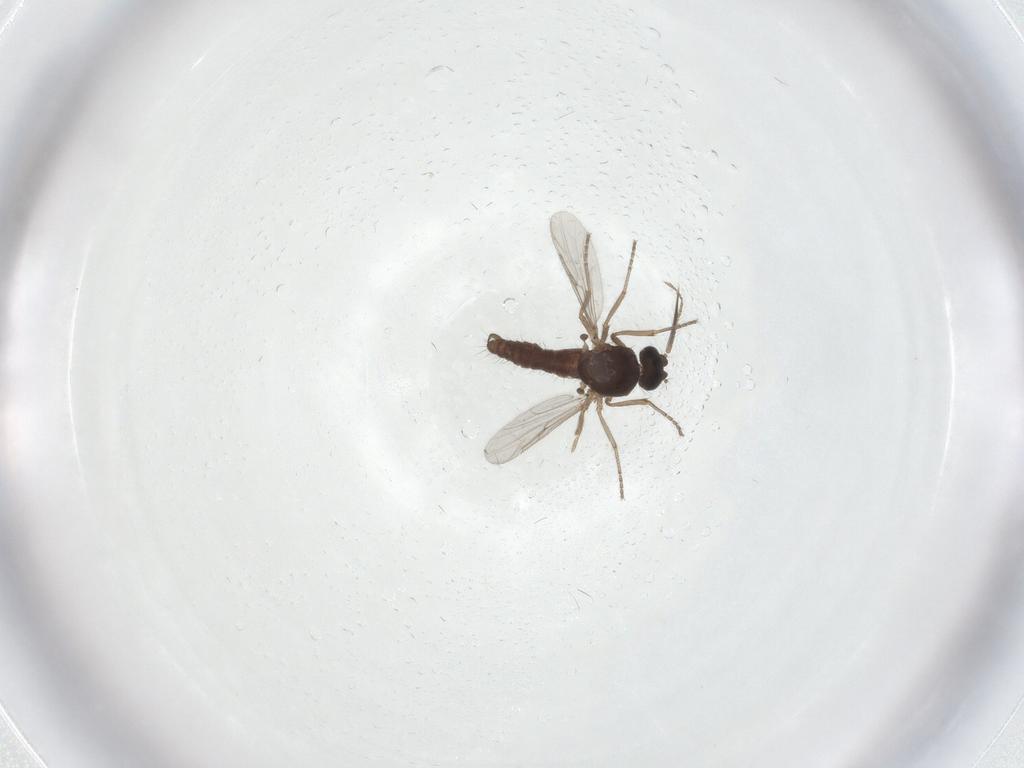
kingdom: Animalia
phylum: Arthropoda
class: Insecta
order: Diptera
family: Ceratopogonidae
